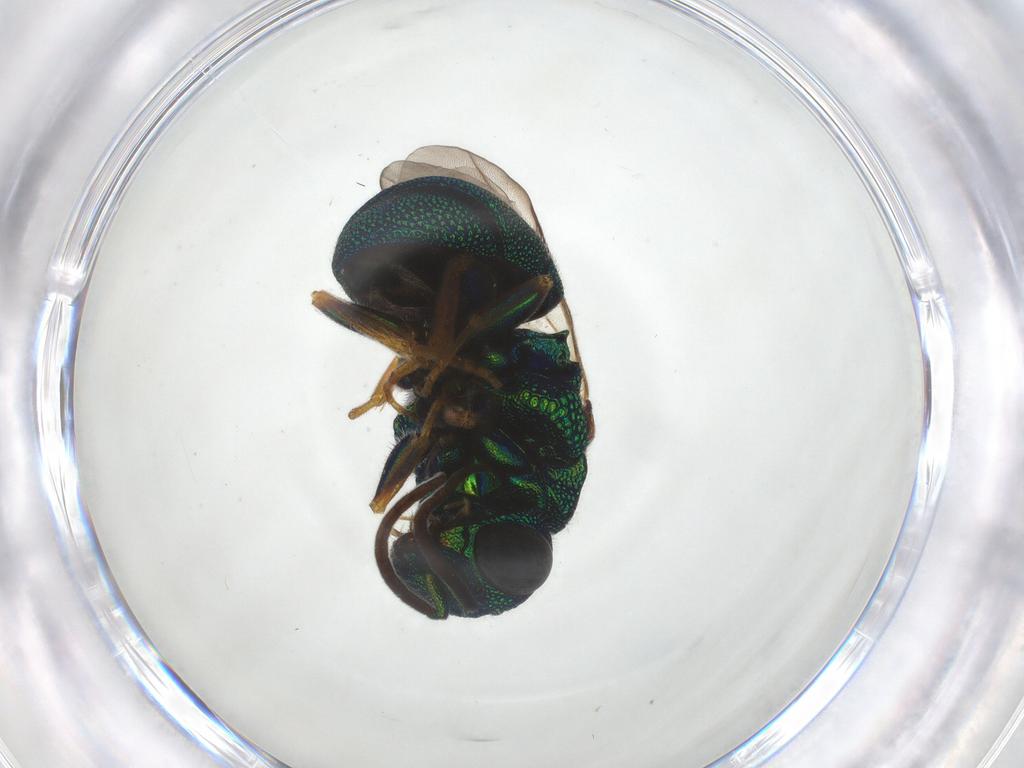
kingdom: Animalia
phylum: Arthropoda
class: Insecta
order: Hymenoptera
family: Scelionidae
